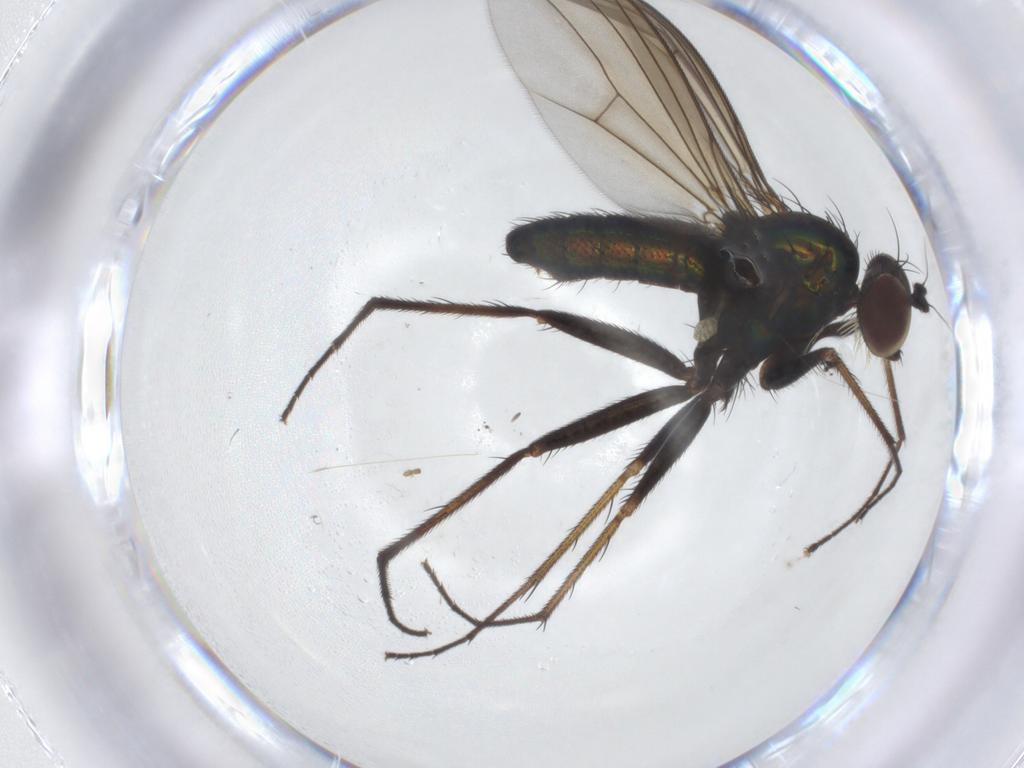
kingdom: Animalia
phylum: Arthropoda
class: Insecta
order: Diptera
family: Dolichopodidae
